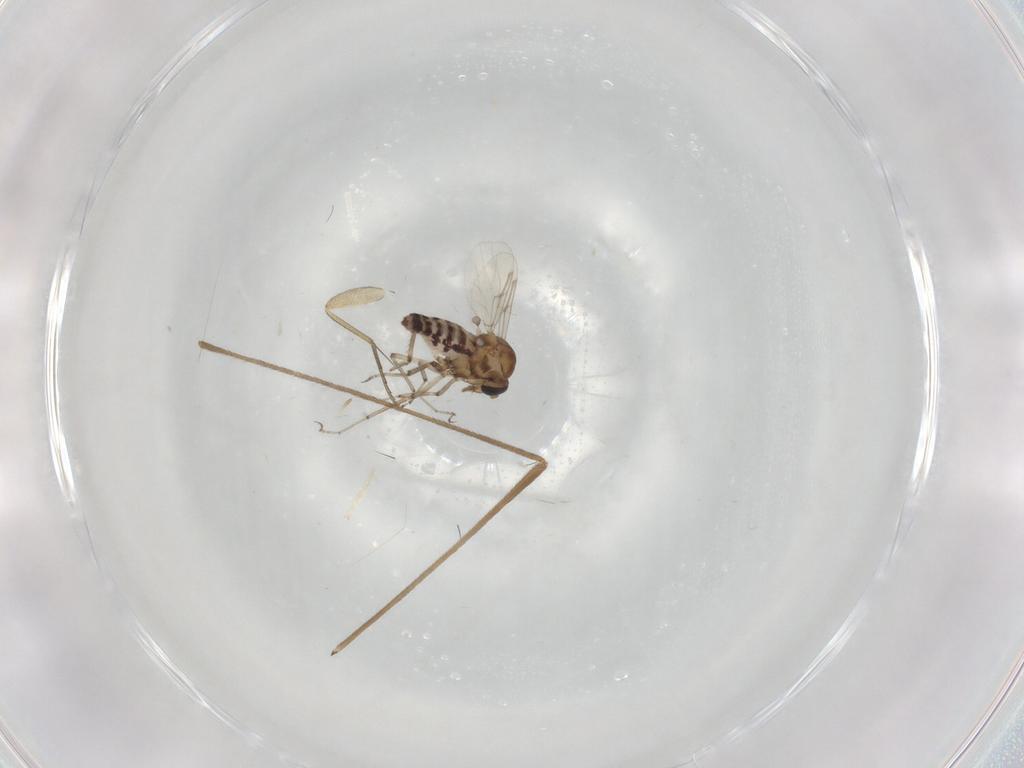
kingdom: Animalia
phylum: Arthropoda
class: Insecta
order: Diptera
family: Limoniidae
